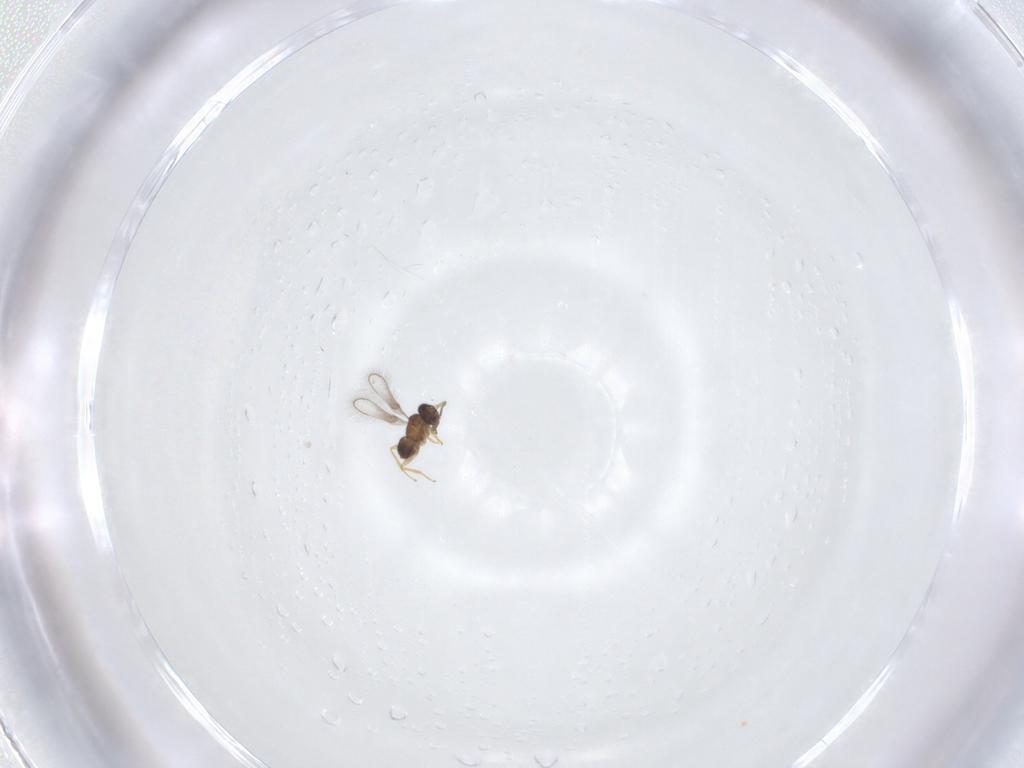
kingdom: Animalia
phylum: Arthropoda
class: Insecta
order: Hymenoptera
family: Mymaridae
